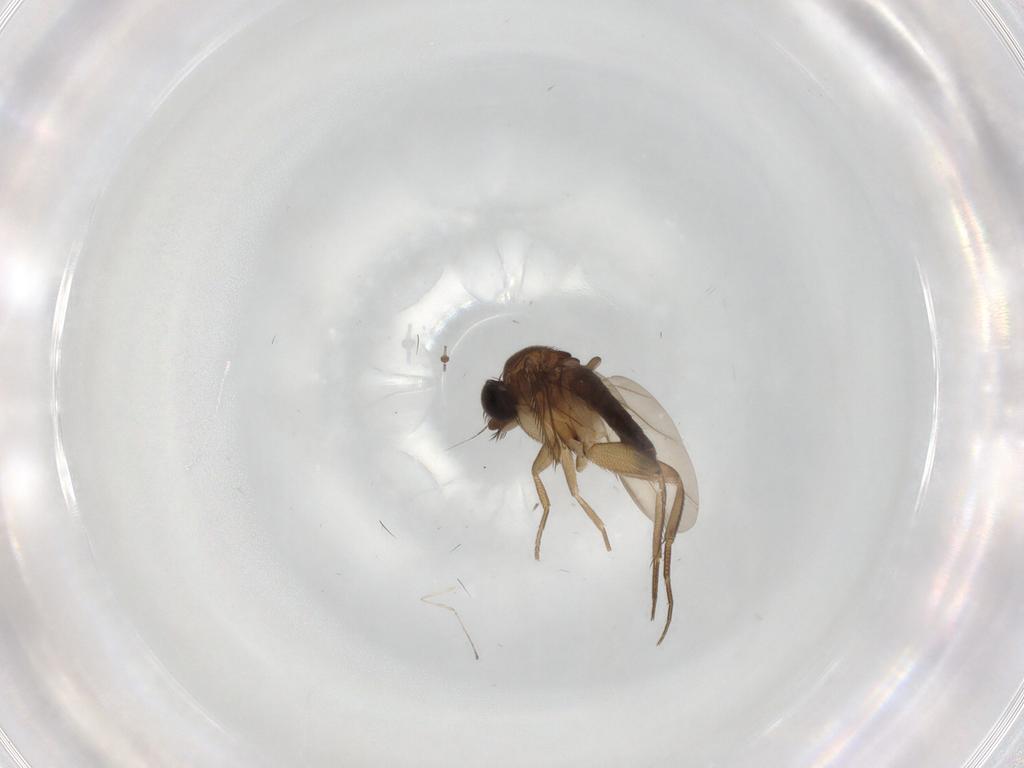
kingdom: Animalia
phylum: Arthropoda
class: Insecta
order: Diptera
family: Phoridae
